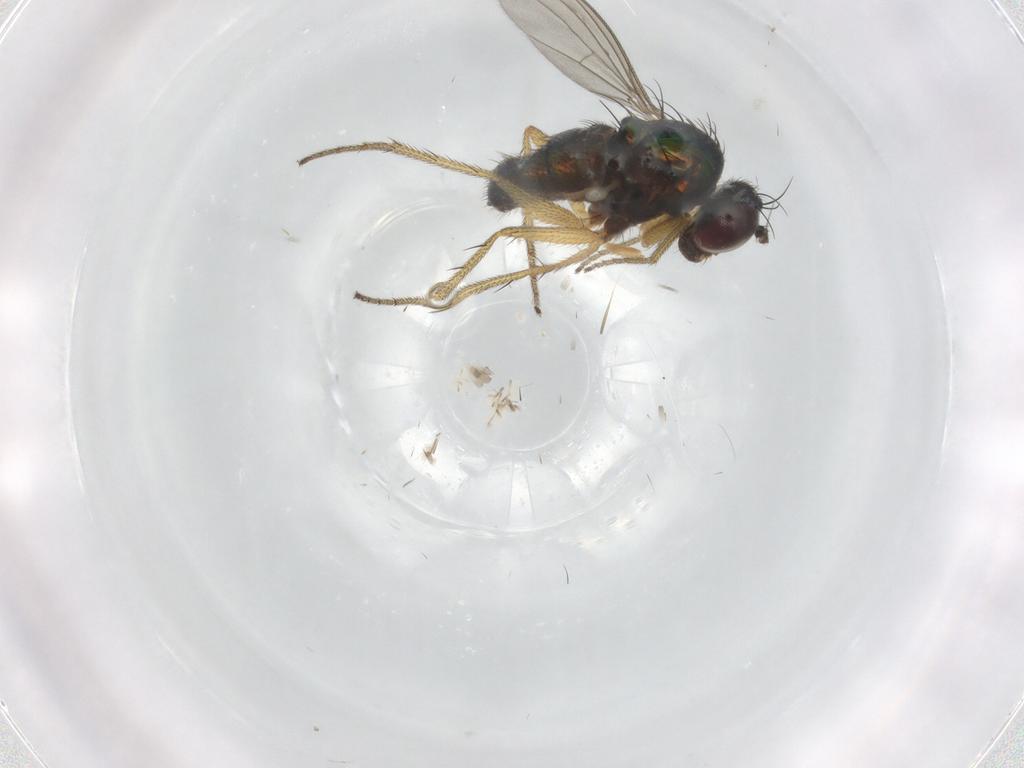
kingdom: Animalia
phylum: Arthropoda
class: Insecta
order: Diptera
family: Dolichopodidae
